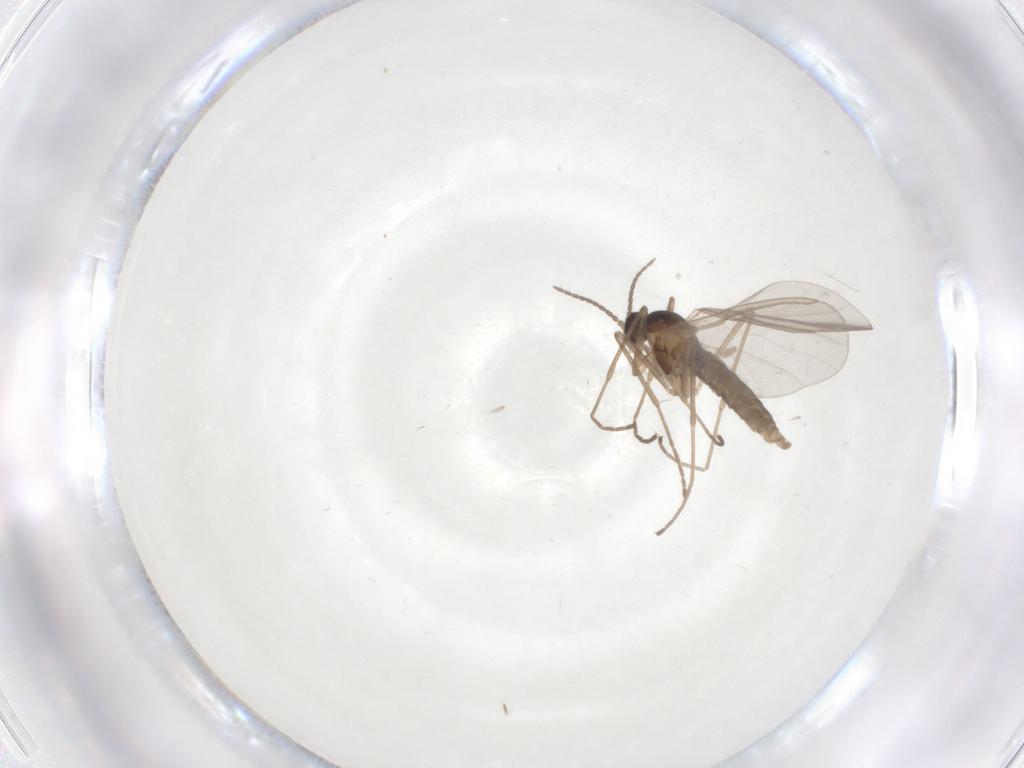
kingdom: Animalia
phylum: Arthropoda
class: Insecta
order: Diptera
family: Cecidomyiidae
